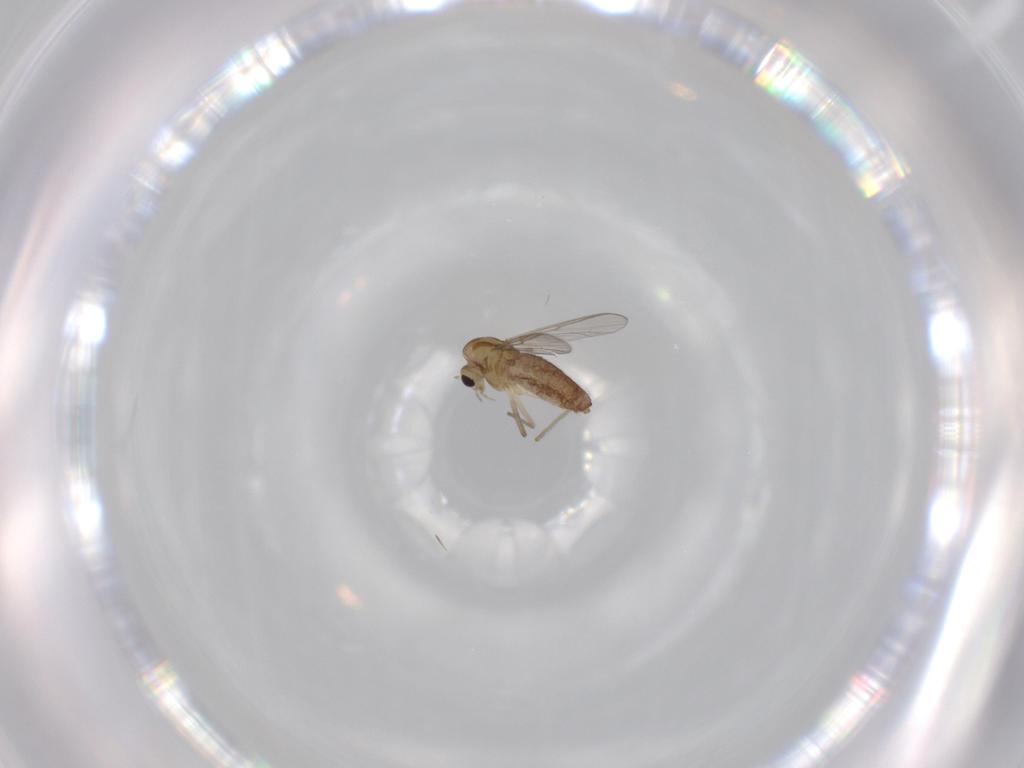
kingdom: Animalia
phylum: Arthropoda
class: Insecta
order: Diptera
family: Chironomidae
